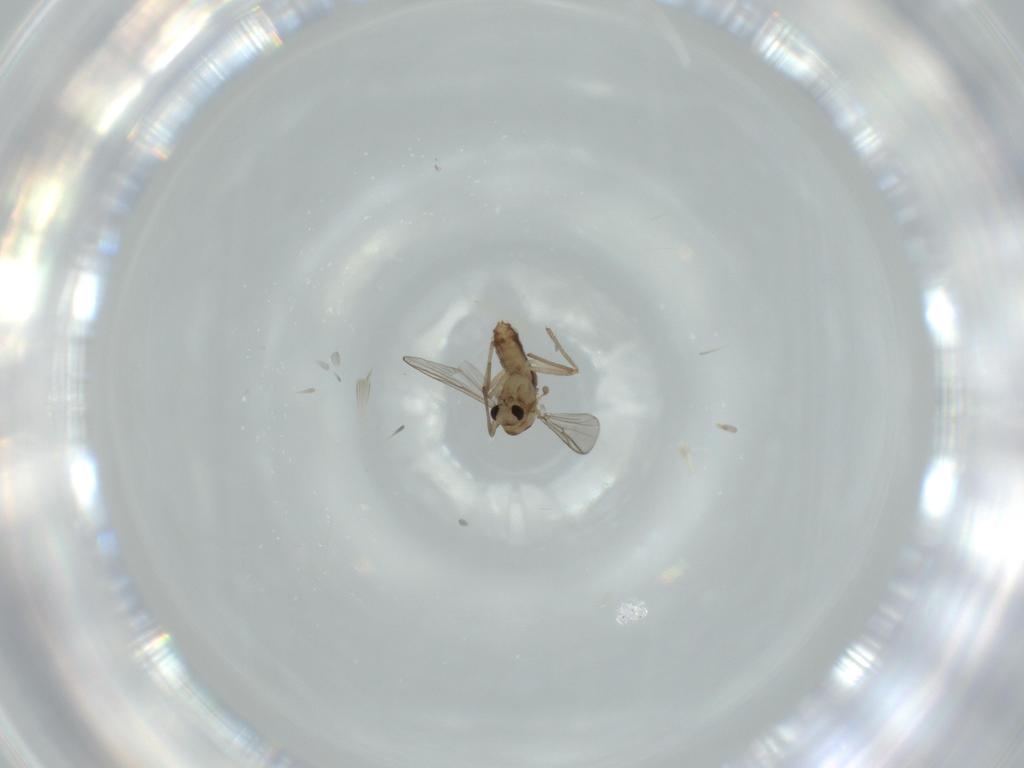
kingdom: Animalia
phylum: Arthropoda
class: Insecta
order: Diptera
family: Chironomidae
